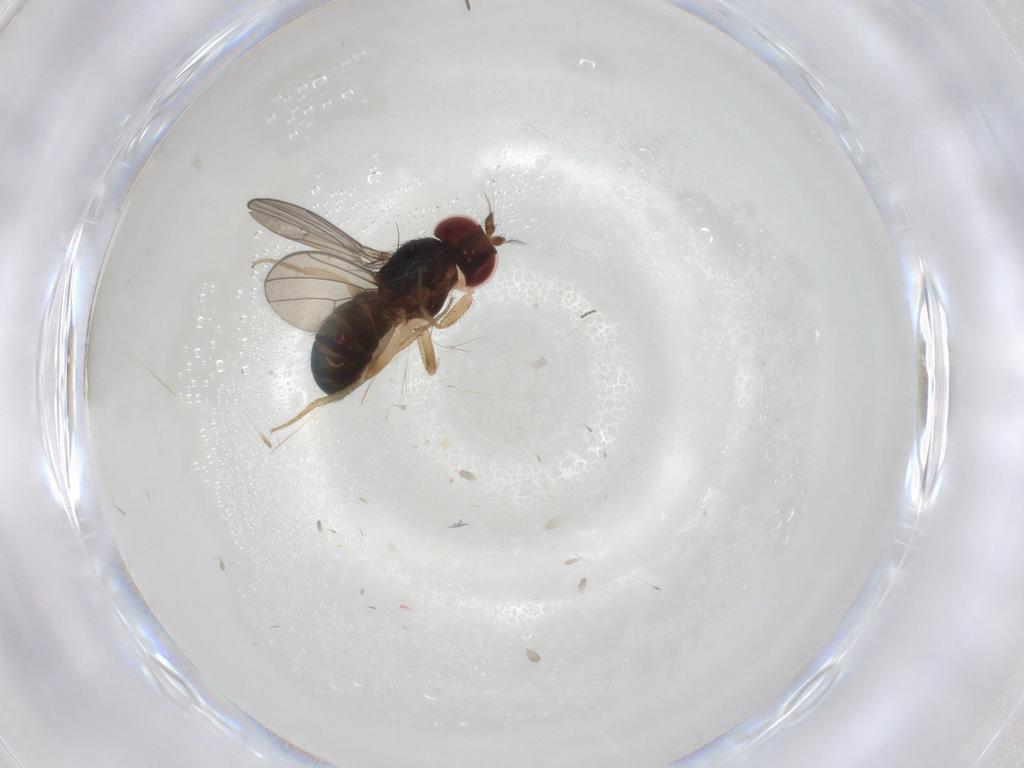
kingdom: Animalia
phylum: Arthropoda
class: Insecta
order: Diptera
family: Drosophilidae
